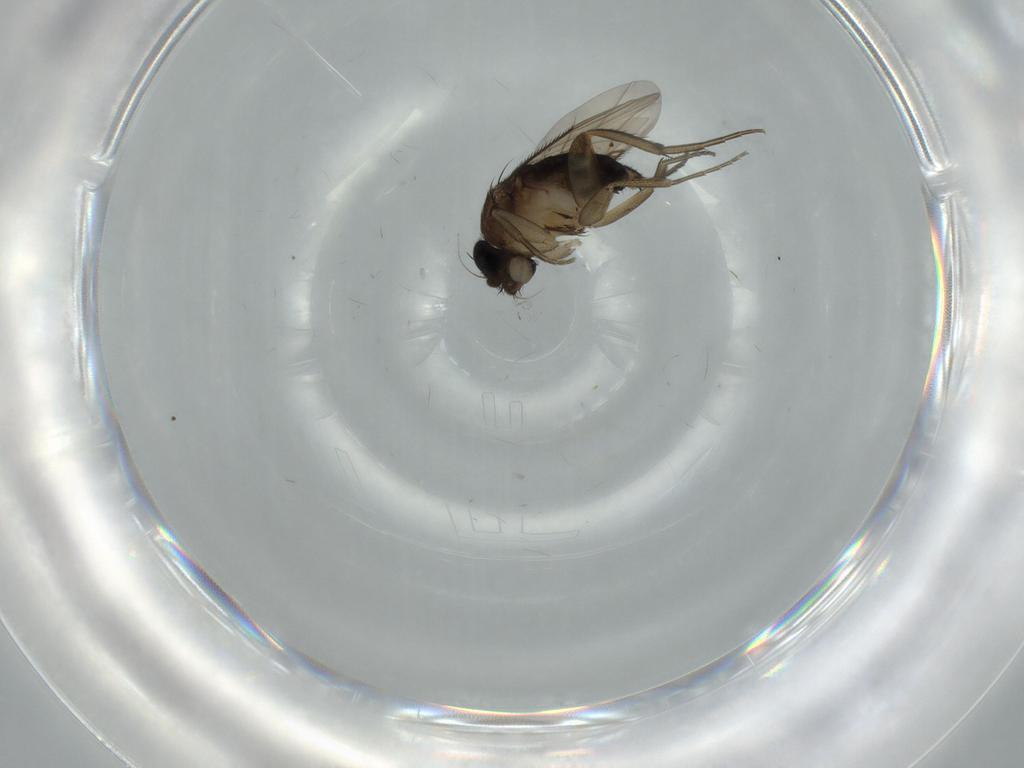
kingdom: Animalia
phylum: Arthropoda
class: Insecta
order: Diptera
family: Phoridae
